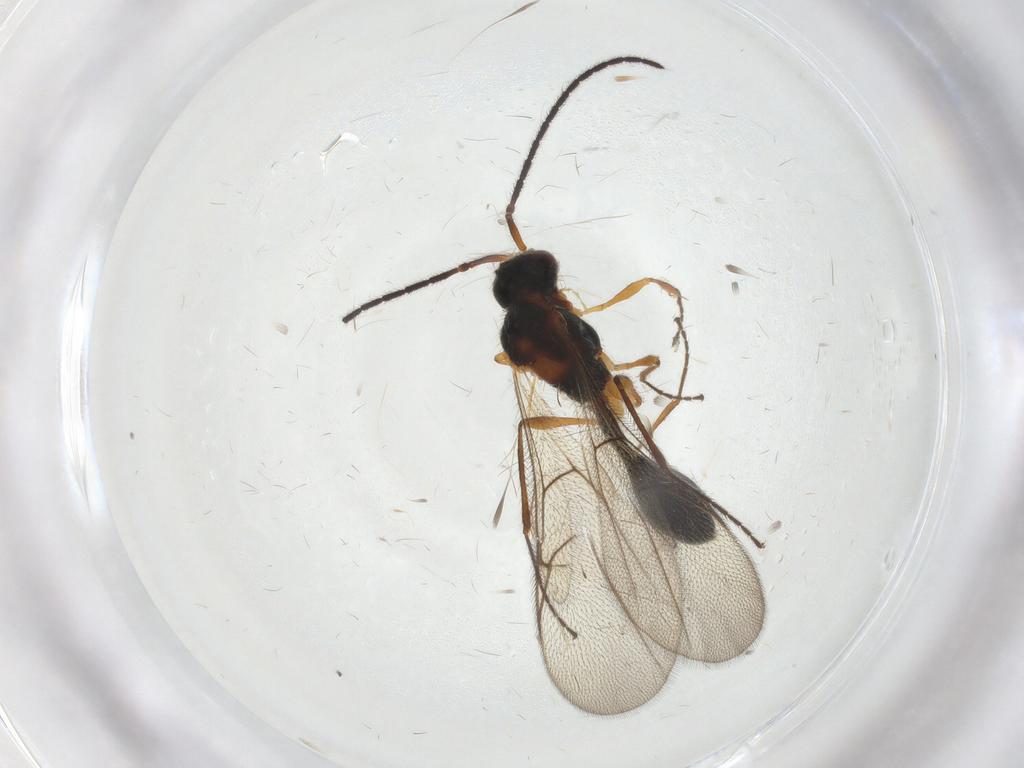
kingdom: Animalia
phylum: Arthropoda
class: Insecta
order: Hymenoptera
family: Diapriidae
